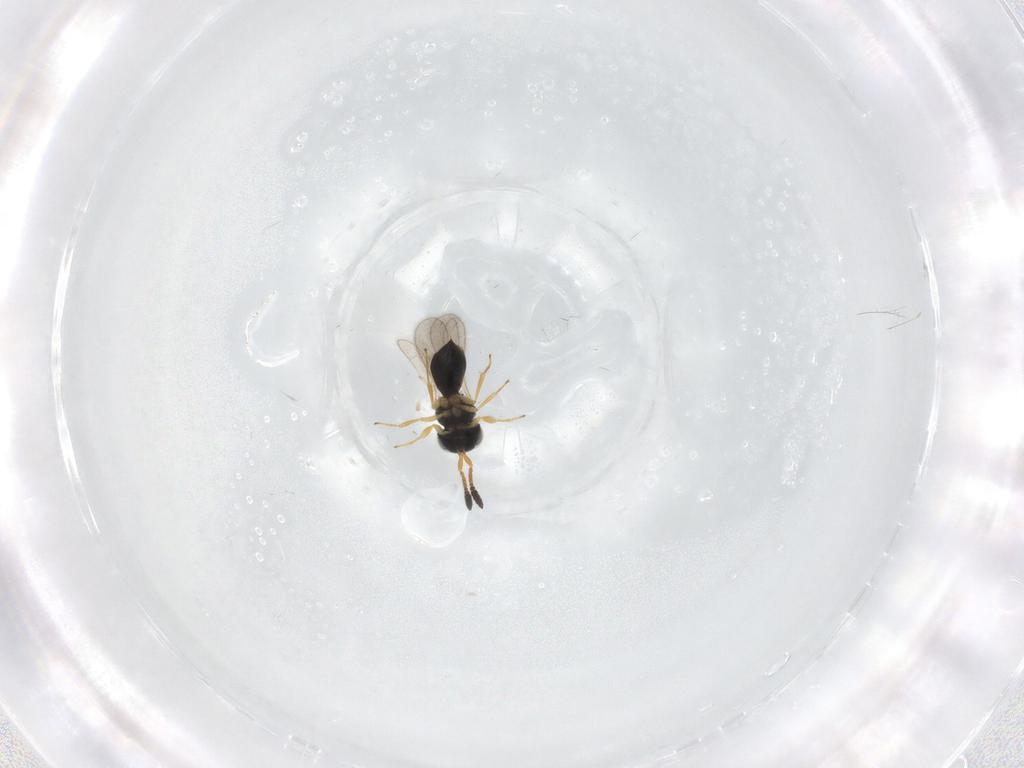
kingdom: Animalia
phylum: Arthropoda
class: Insecta
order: Hymenoptera
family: Scelionidae
